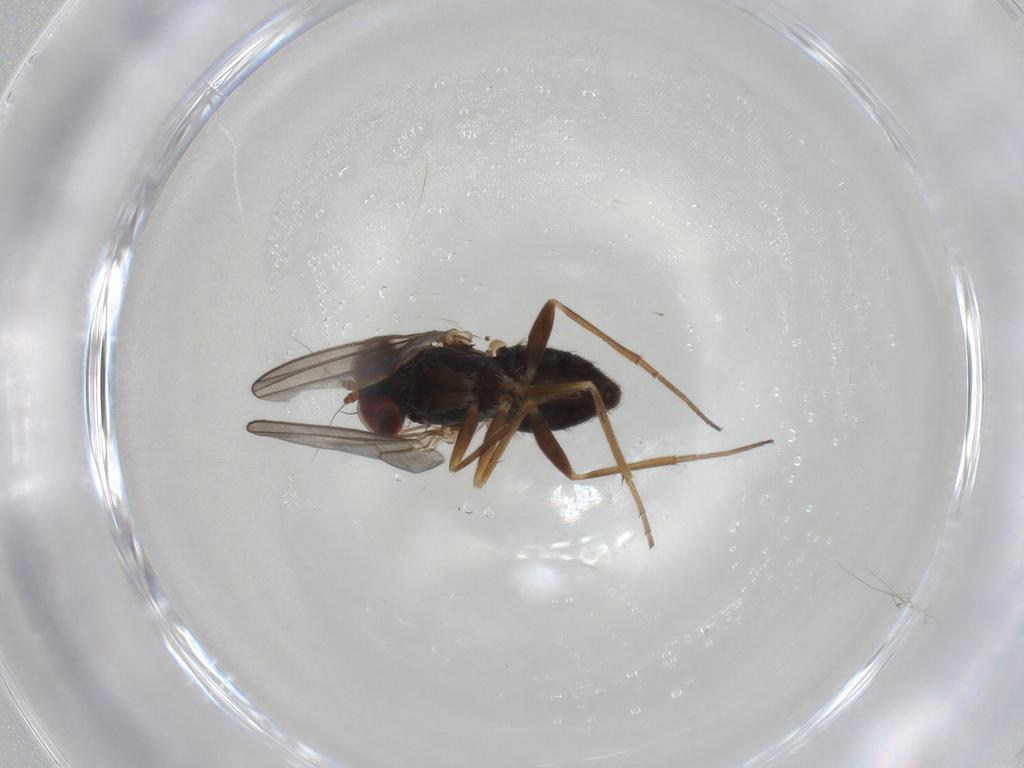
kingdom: Animalia
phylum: Arthropoda
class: Insecta
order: Diptera
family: Dolichopodidae
